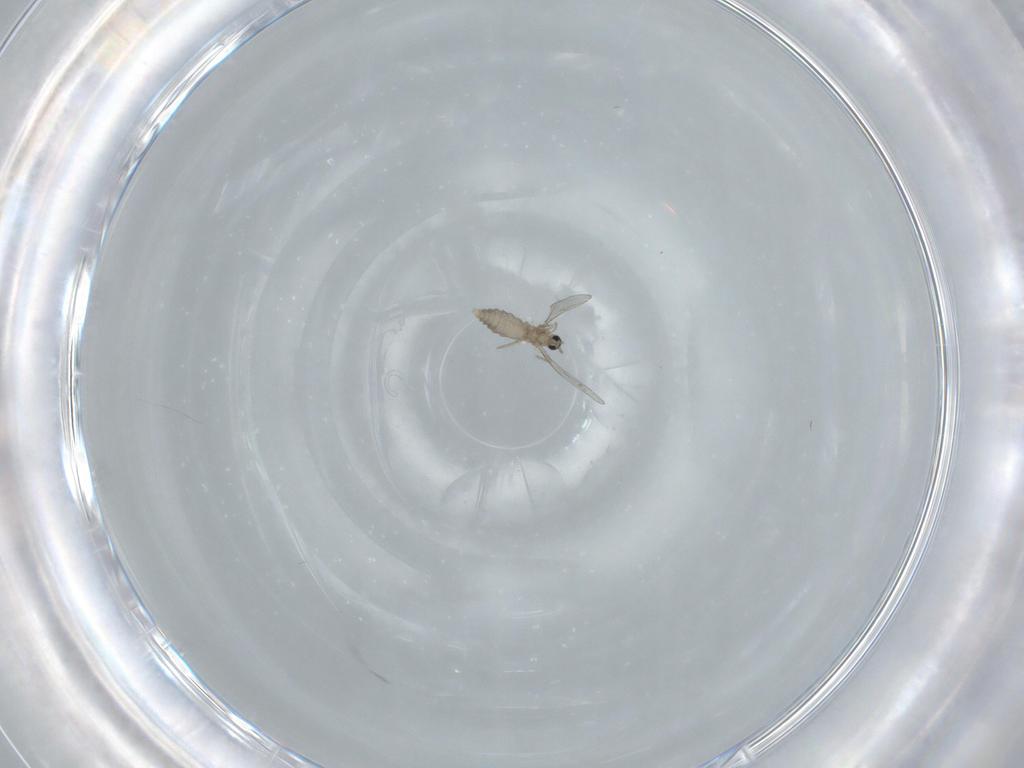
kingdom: Animalia
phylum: Arthropoda
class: Insecta
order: Diptera
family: Cecidomyiidae
